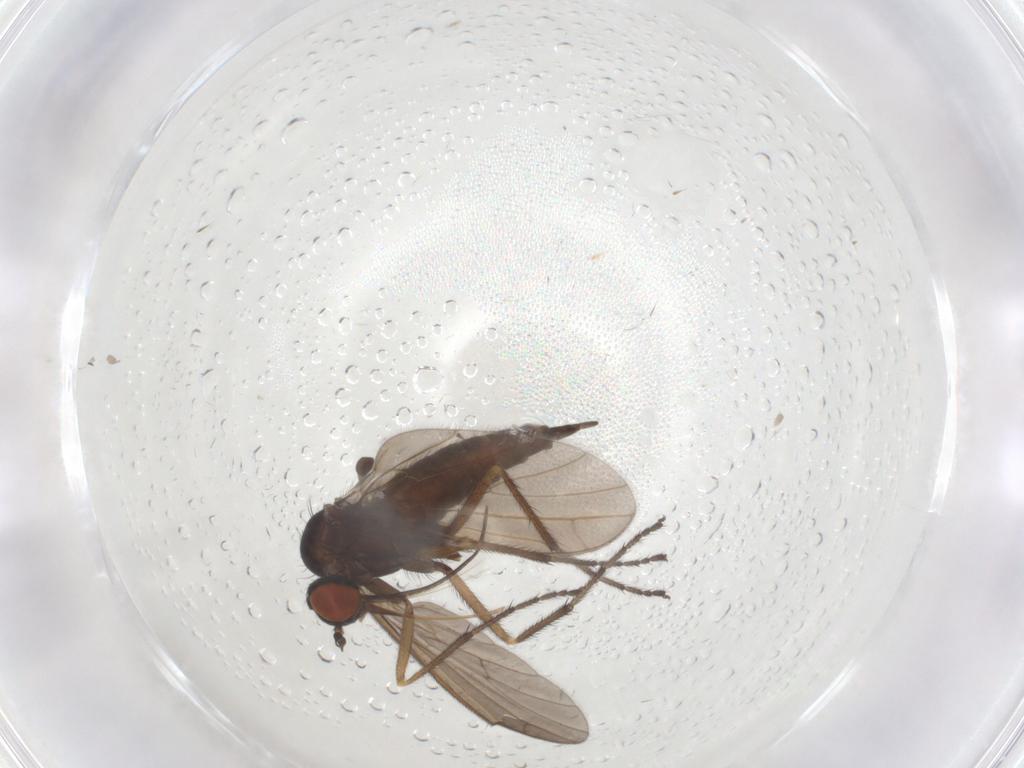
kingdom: Animalia
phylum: Arthropoda
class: Insecta
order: Diptera
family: Empididae
